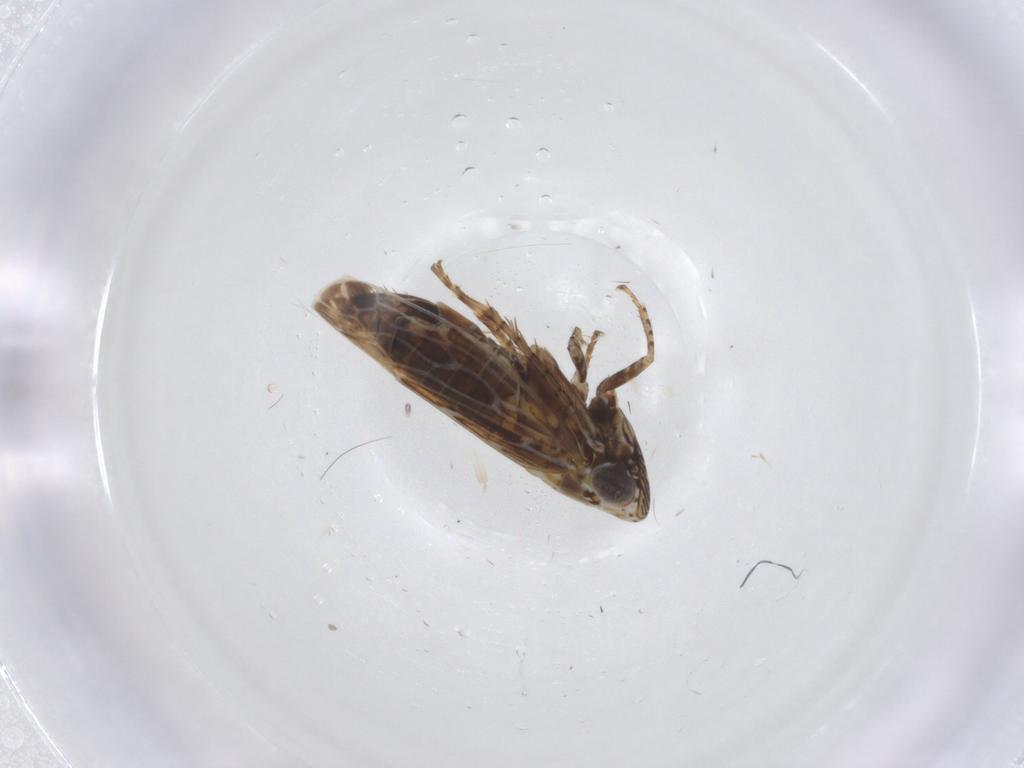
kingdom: Animalia
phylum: Arthropoda
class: Insecta
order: Hemiptera
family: Cicadellidae
